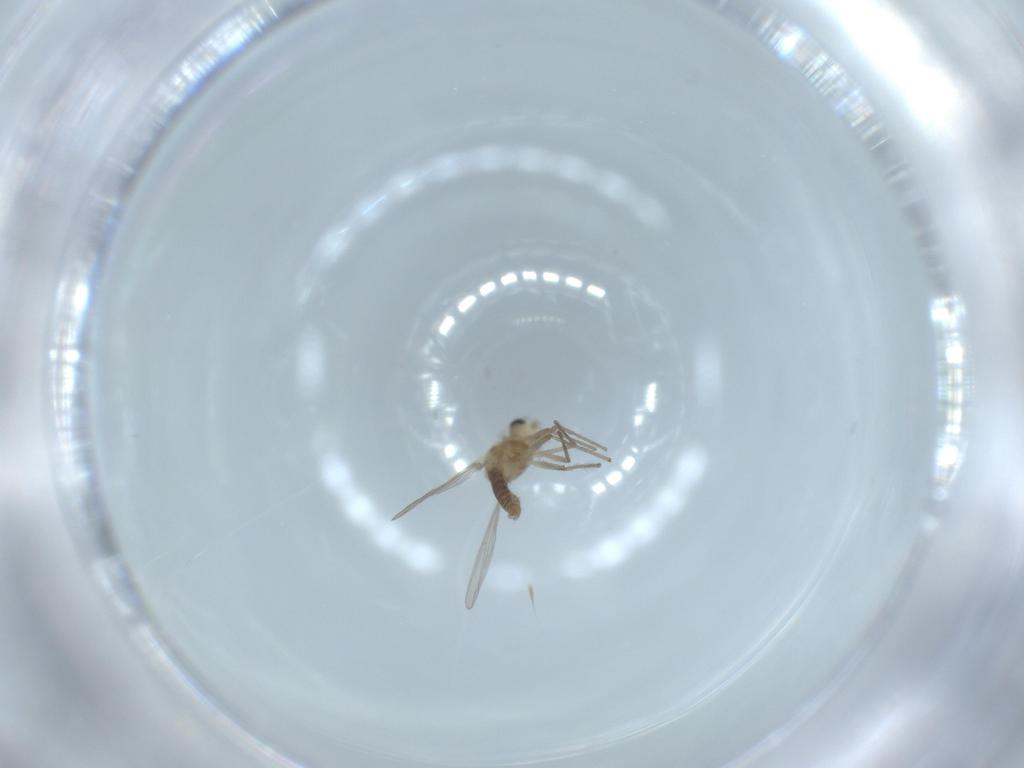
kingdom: Animalia
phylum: Arthropoda
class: Insecta
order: Diptera
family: Chironomidae
